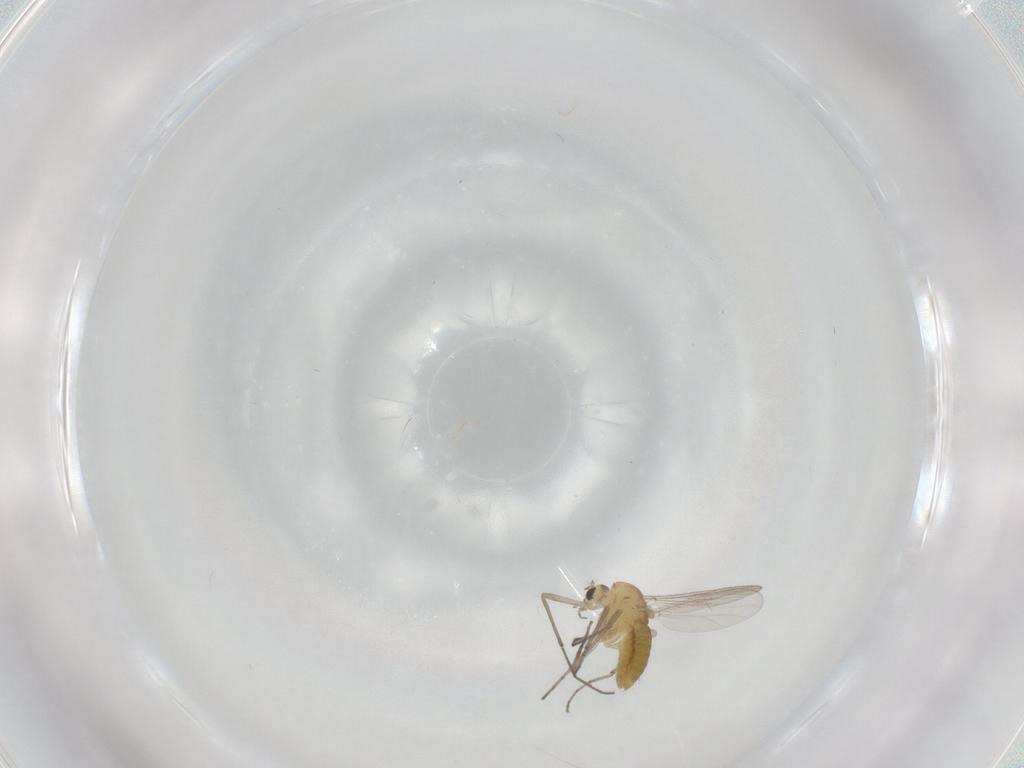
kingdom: Animalia
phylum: Arthropoda
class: Insecta
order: Diptera
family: Chironomidae
